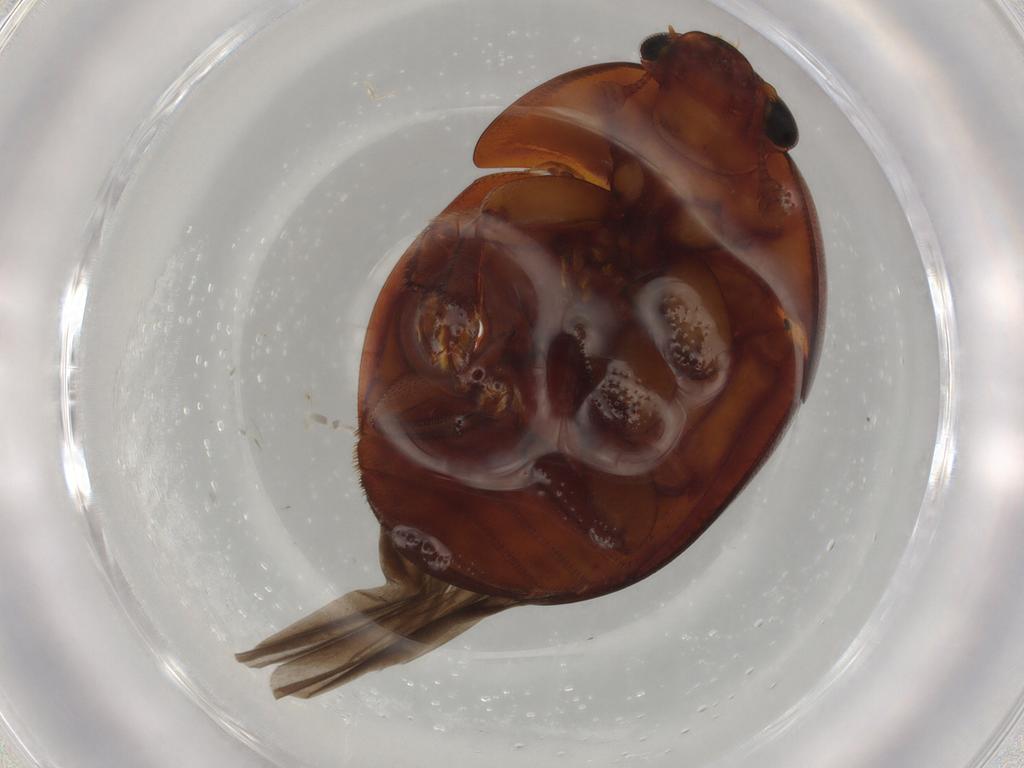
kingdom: Animalia
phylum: Arthropoda
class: Insecta
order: Coleoptera
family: Nitidulidae
